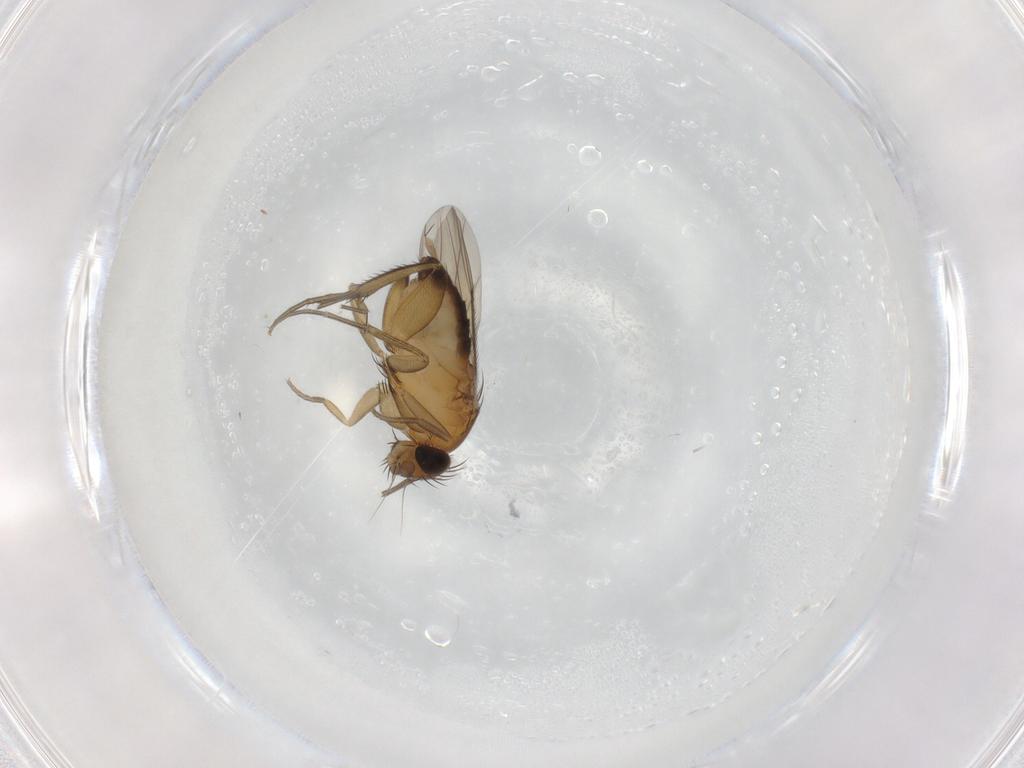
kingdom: Animalia
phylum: Arthropoda
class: Insecta
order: Diptera
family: Phoridae
